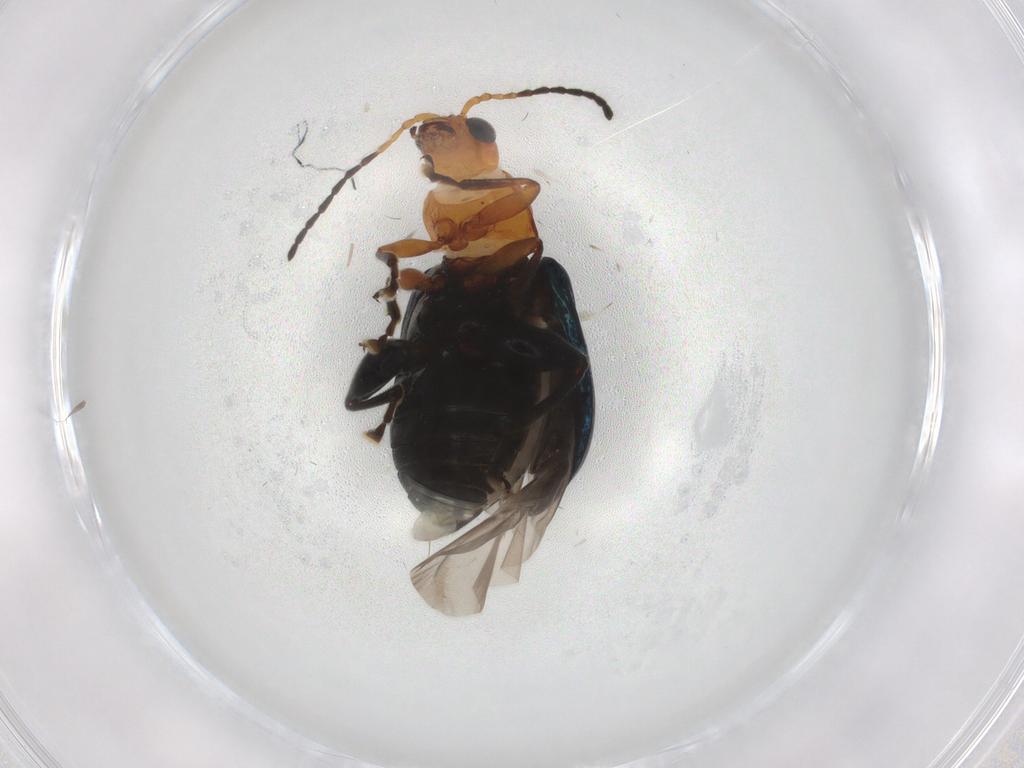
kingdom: Animalia
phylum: Arthropoda
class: Insecta
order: Coleoptera
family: Chrysomelidae
